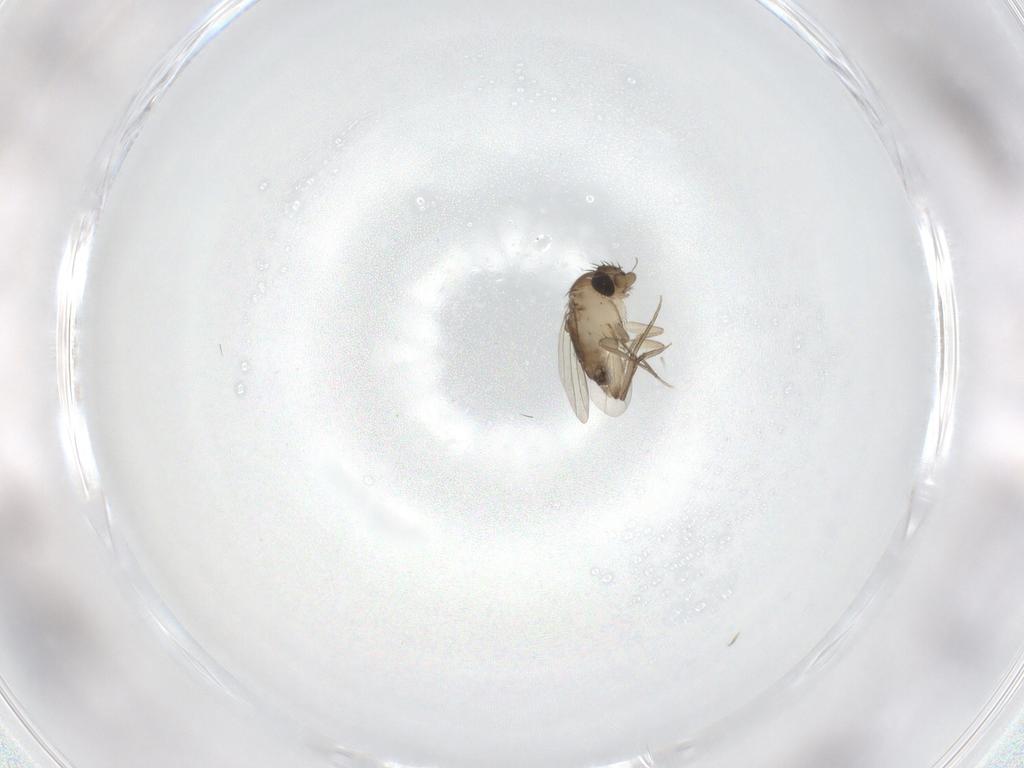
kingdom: Animalia
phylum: Arthropoda
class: Insecta
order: Diptera
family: Phoridae
